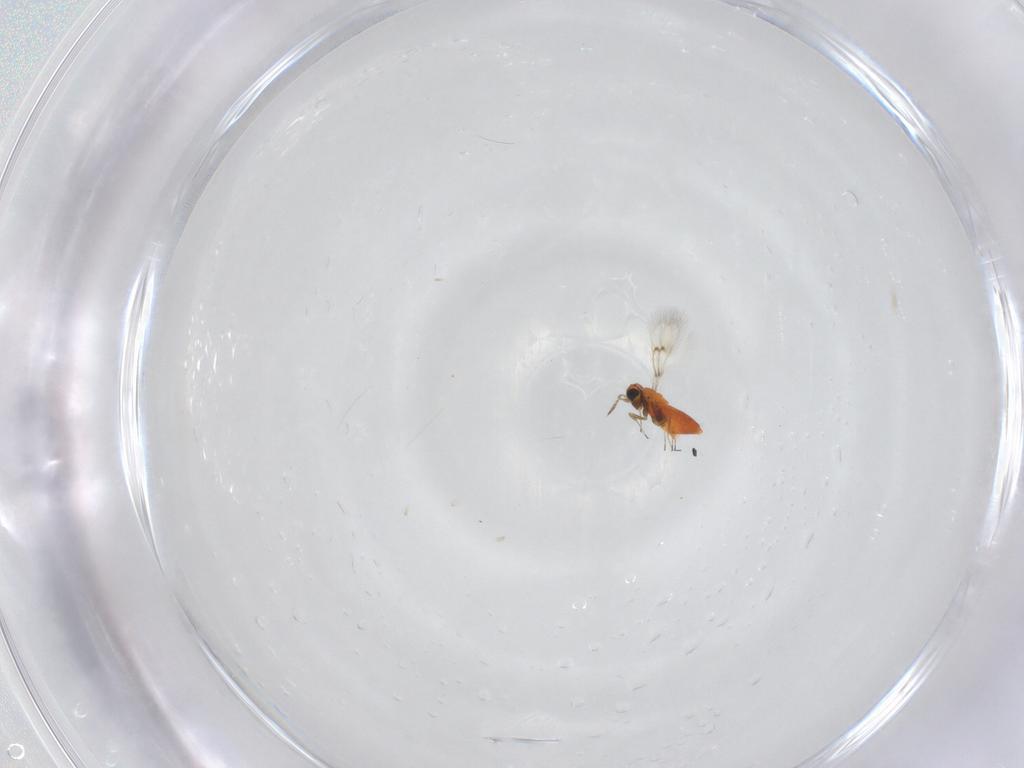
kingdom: Animalia
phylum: Arthropoda
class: Insecta
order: Hymenoptera
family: Trichogrammatidae
